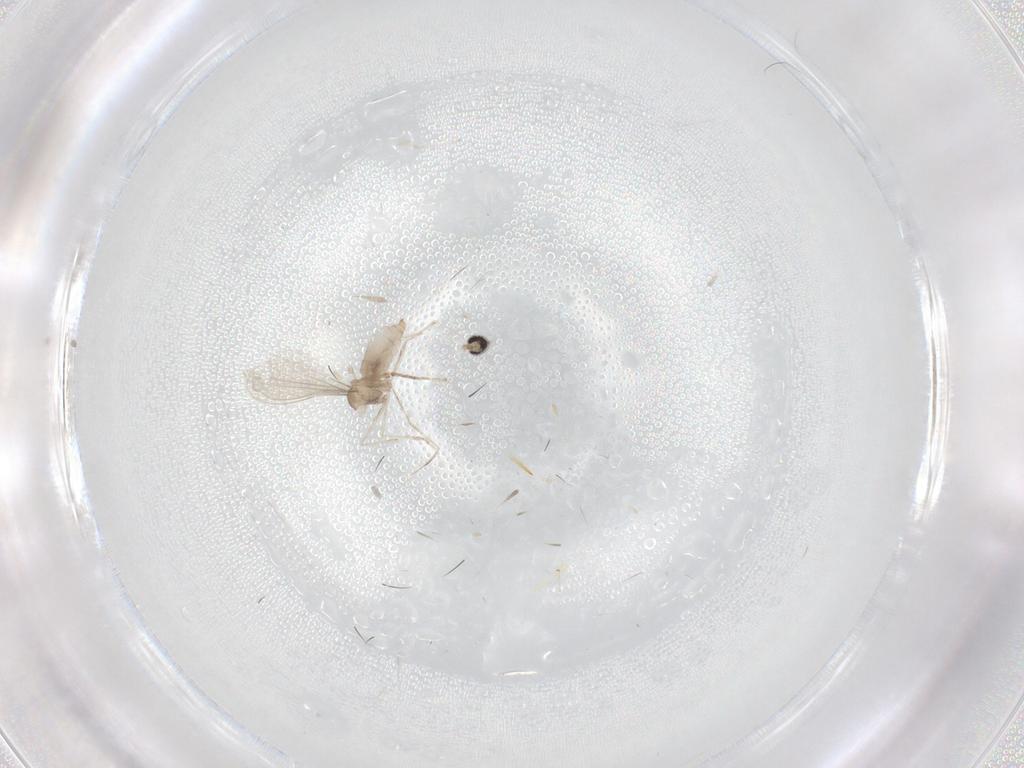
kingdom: Animalia
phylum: Arthropoda
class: Insecta
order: Diptera
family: Cecidomyiidae
